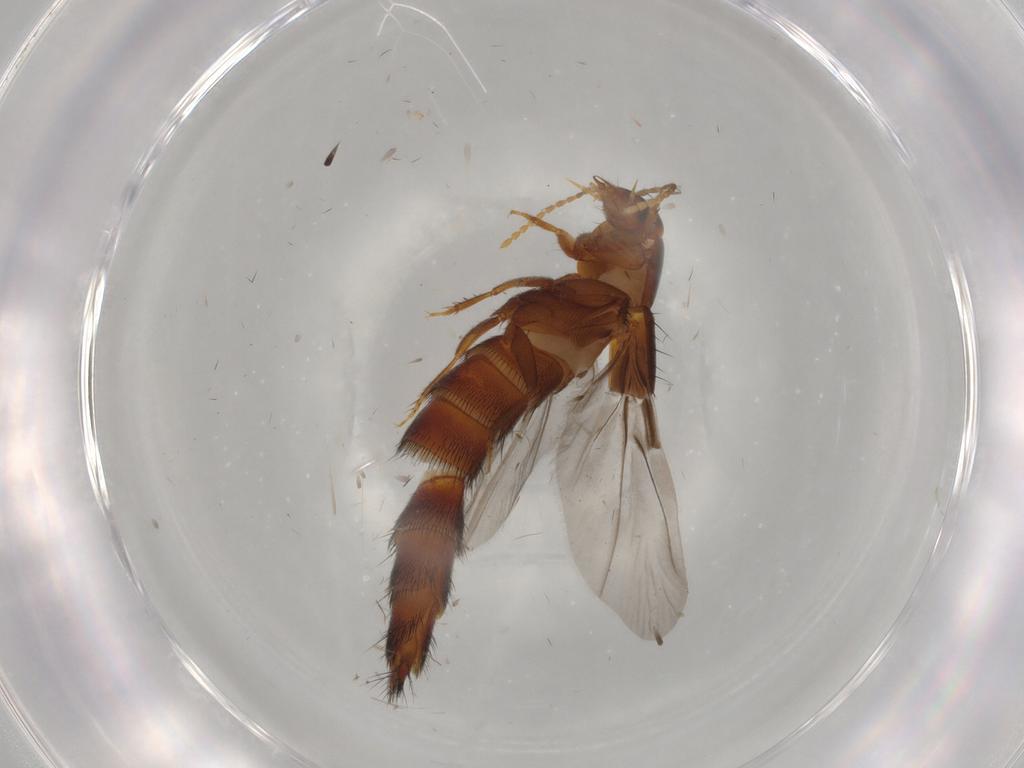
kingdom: Animalia
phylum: Arthropoda
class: Insecta
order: Coleoptera
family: Staphylinidae
